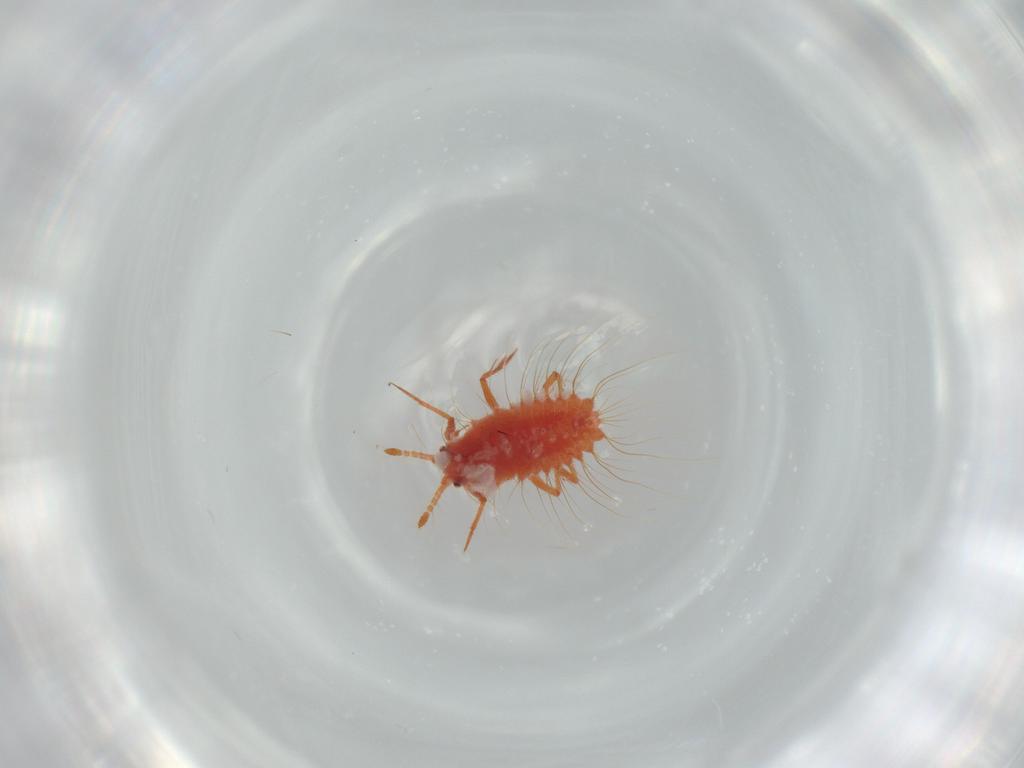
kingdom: Animalia
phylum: Arthropoda
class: Insecta
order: Hemiptera
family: Monophlebidae
